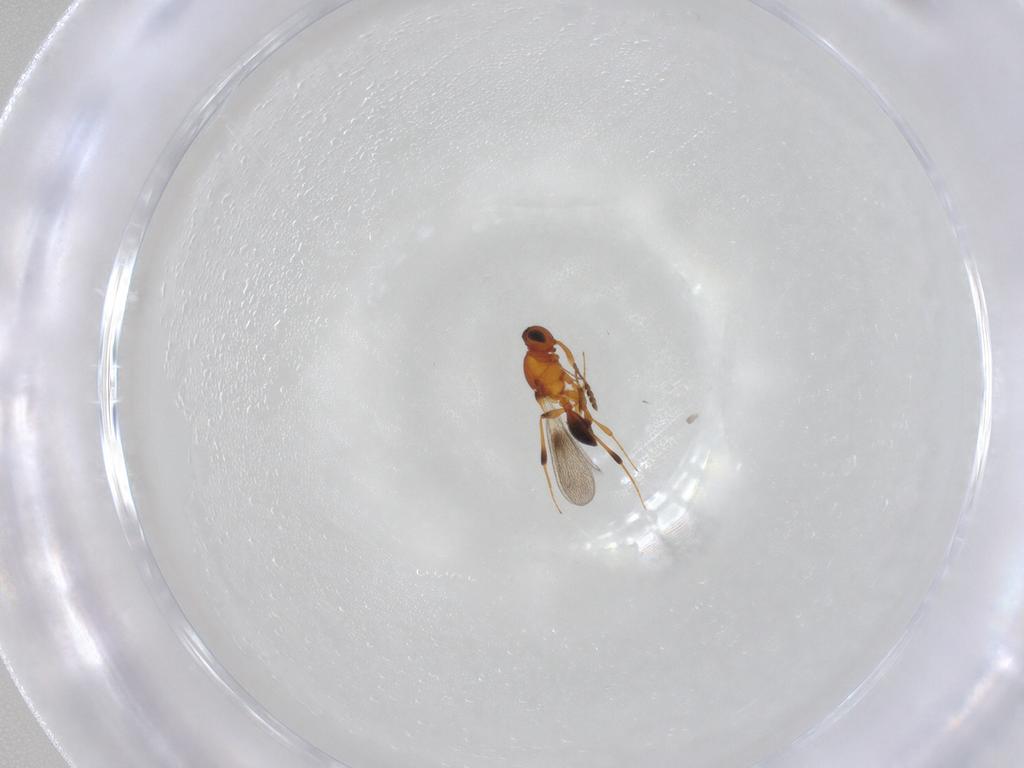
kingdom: Animalia
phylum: Arthropoda
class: Insecta
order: Hymenoptera
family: Platygastridae
